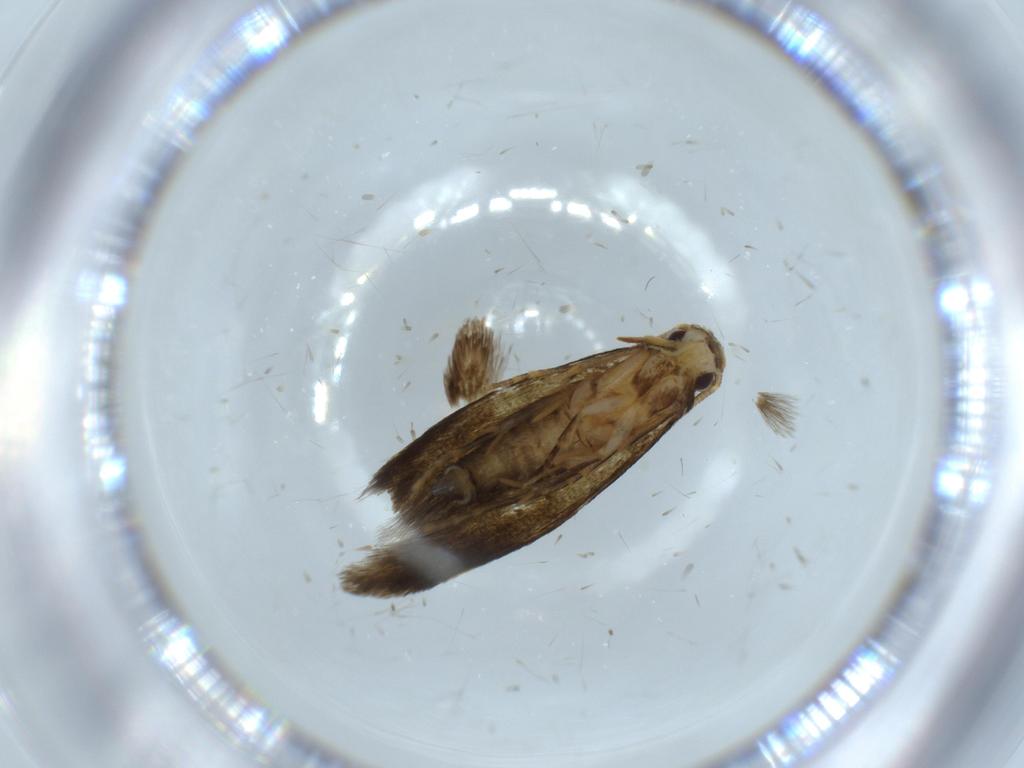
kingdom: Animalia
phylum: Arthropoda
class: Insecta
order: Lepidoptera
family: Tineidae
